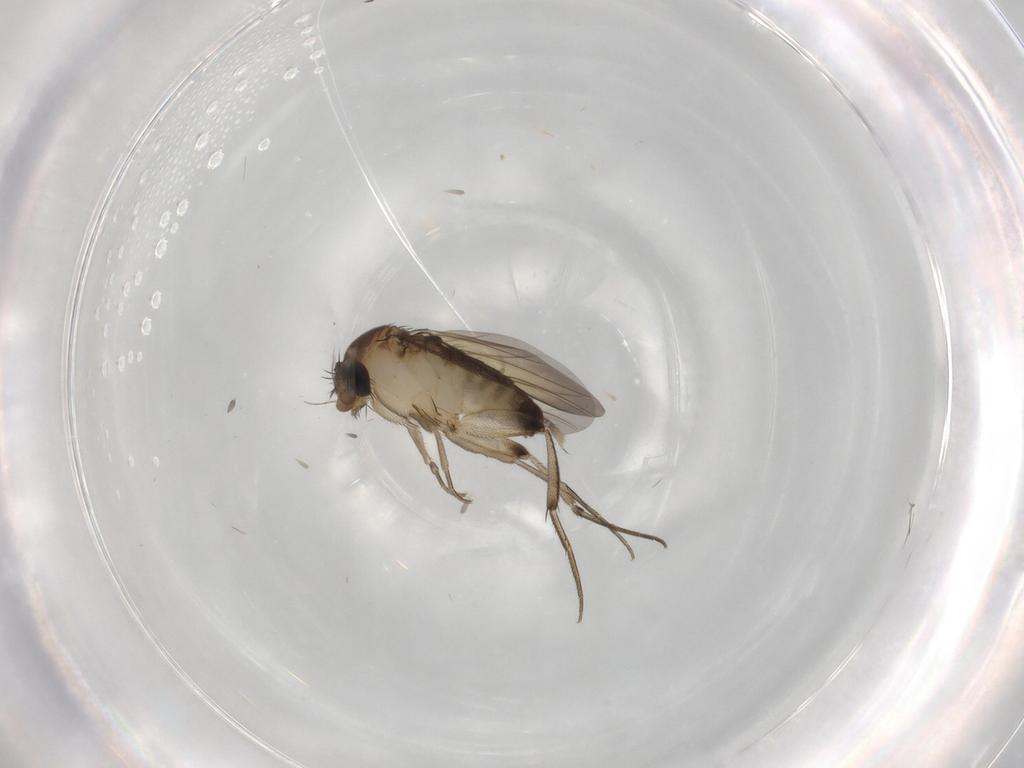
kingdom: Animalia
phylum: Arthropoda
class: Insecta
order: Diptera
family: Phoridae
